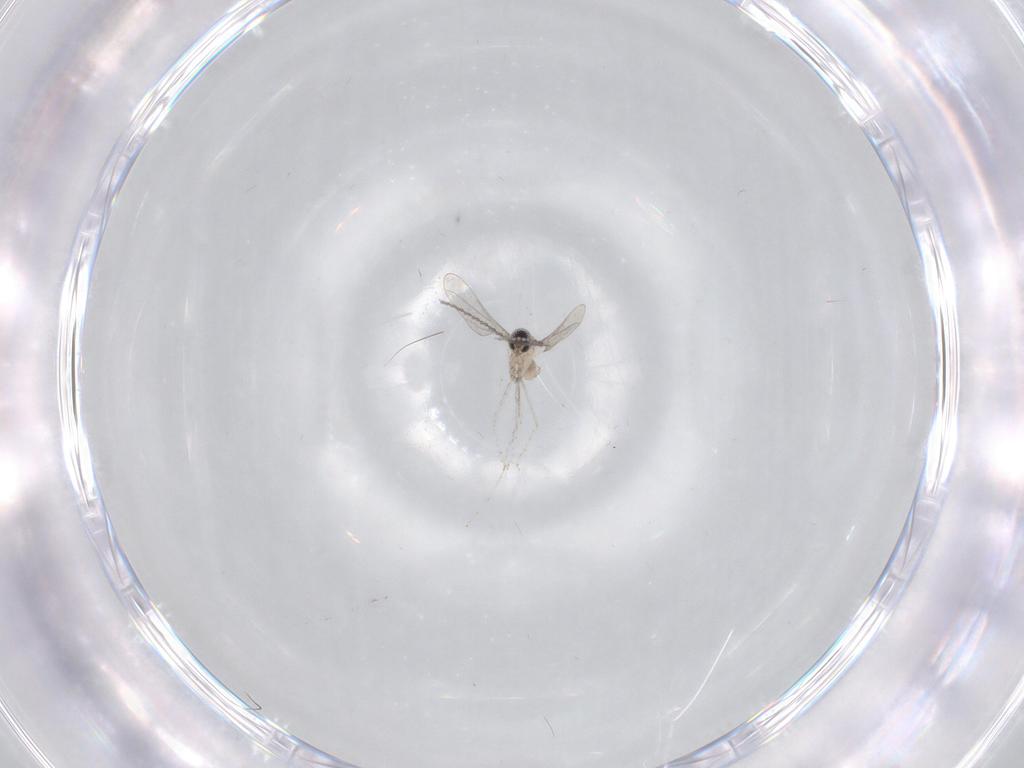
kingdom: Animalia
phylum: Arthropoda
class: Insecta
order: Diptera
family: Cecidomyiidae
